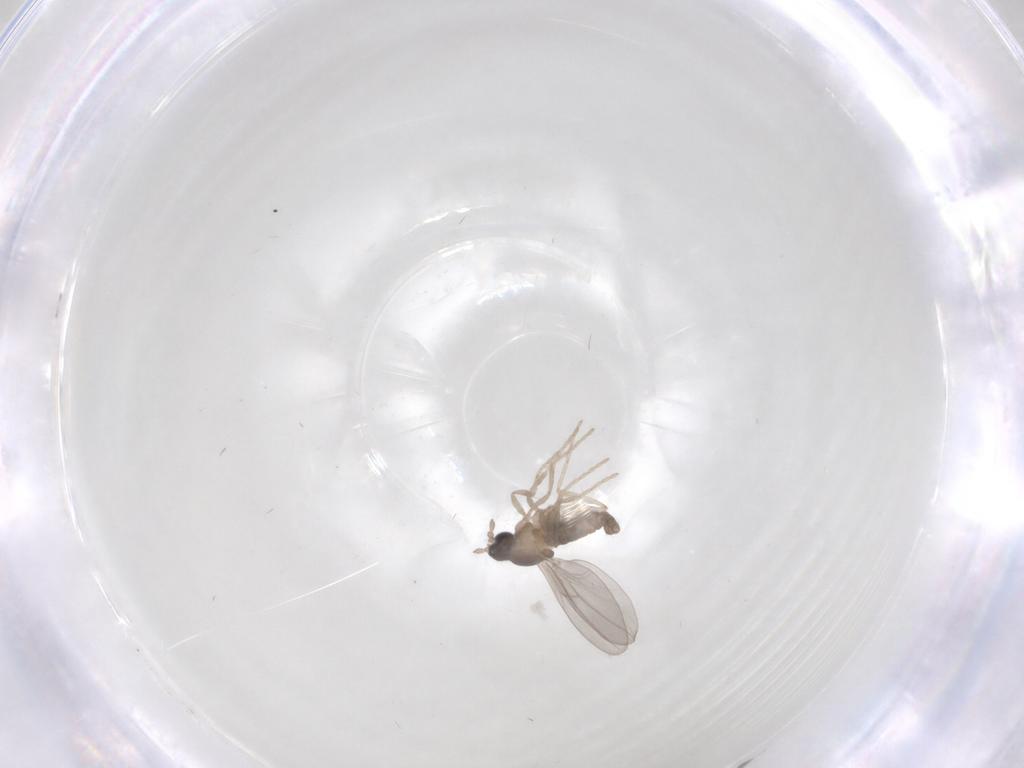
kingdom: Animalia
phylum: Arthropoda
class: Insecta
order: Diptera
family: Cecidomyiidae
